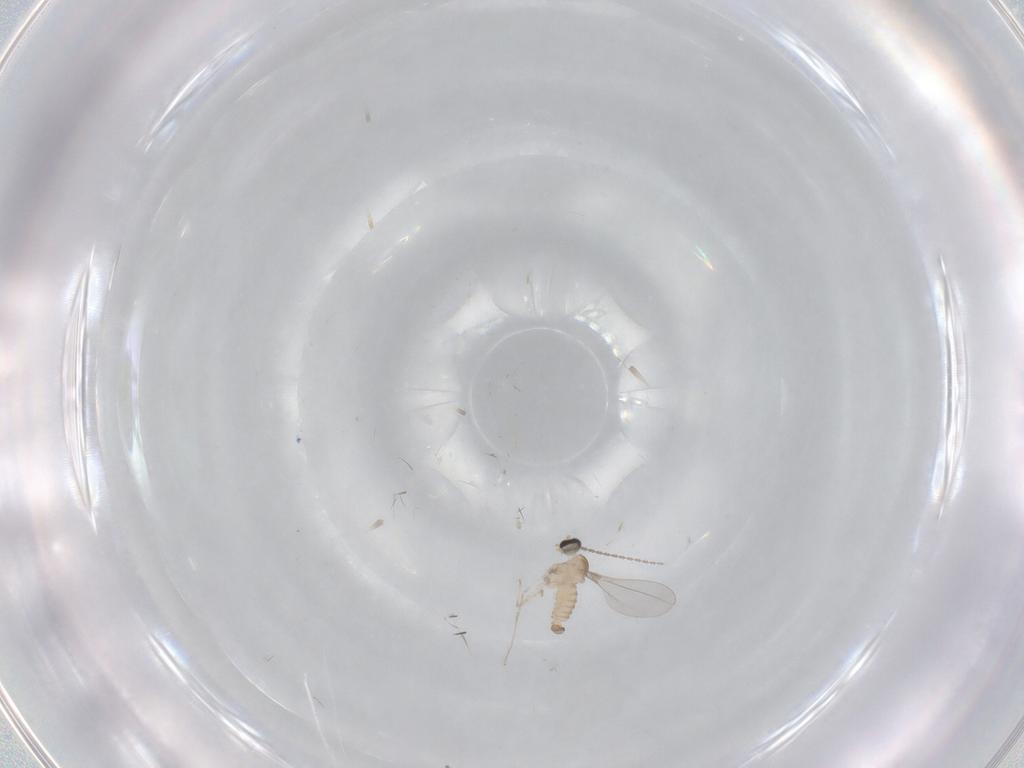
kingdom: Animalia
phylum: Arthropoda
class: Insecta
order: Diptera
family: Cecidomyiidae
